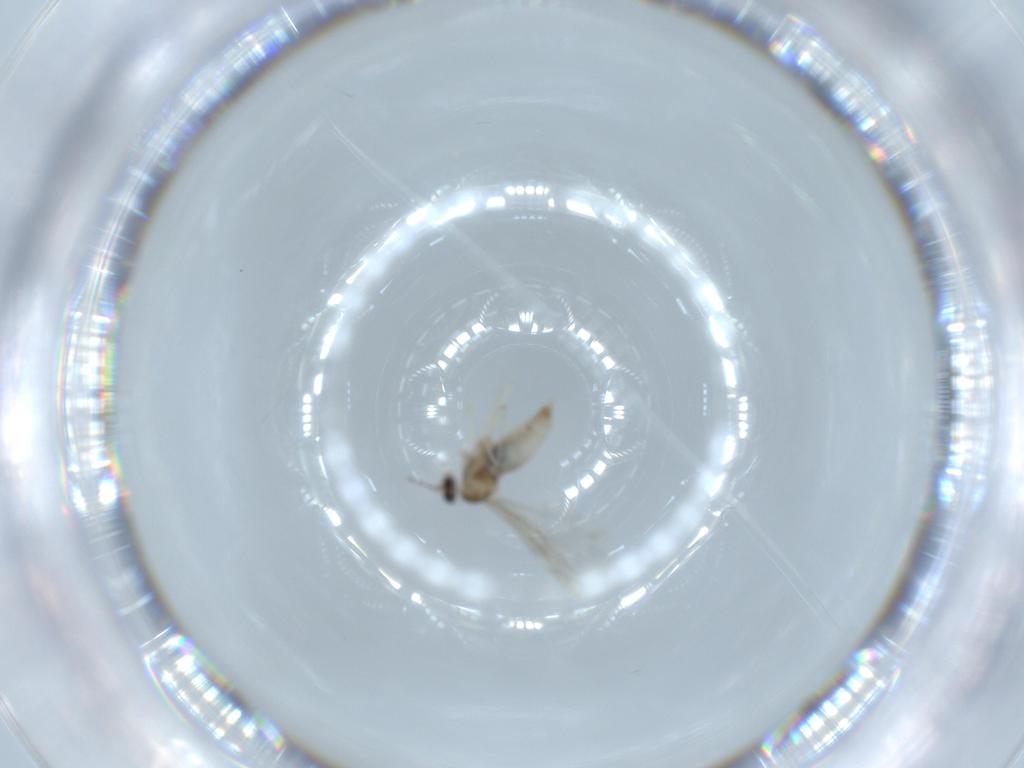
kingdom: Animalia
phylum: Arthropoda
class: Insecta
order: Diptera
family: Cecidomyiidae
